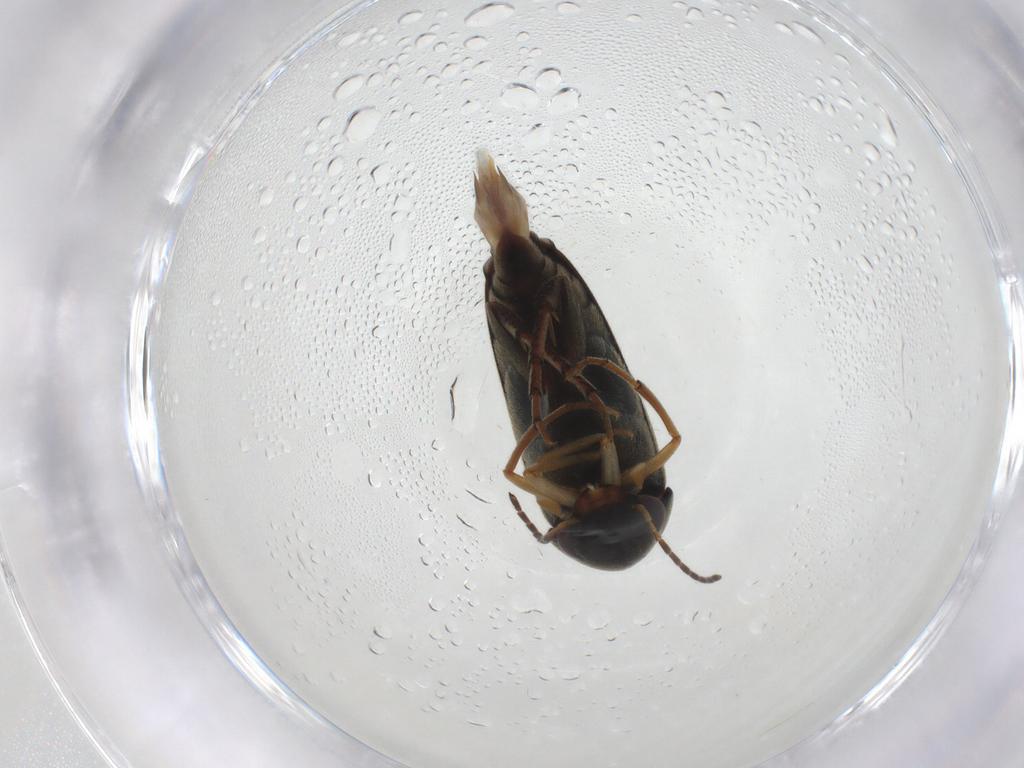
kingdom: Animalia
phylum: Arthropoda
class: Insecta
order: Coleoptera
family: Mordellidae
